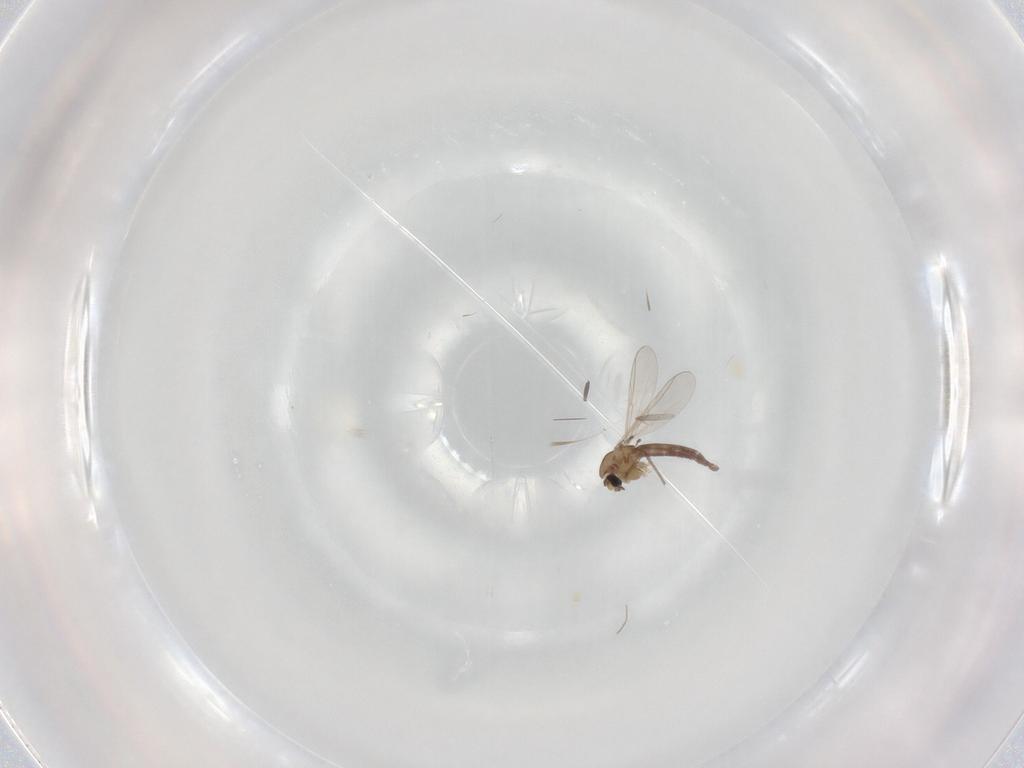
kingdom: Animalia
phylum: Arthropoda
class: Insecta
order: Diptera
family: Chironomidae
